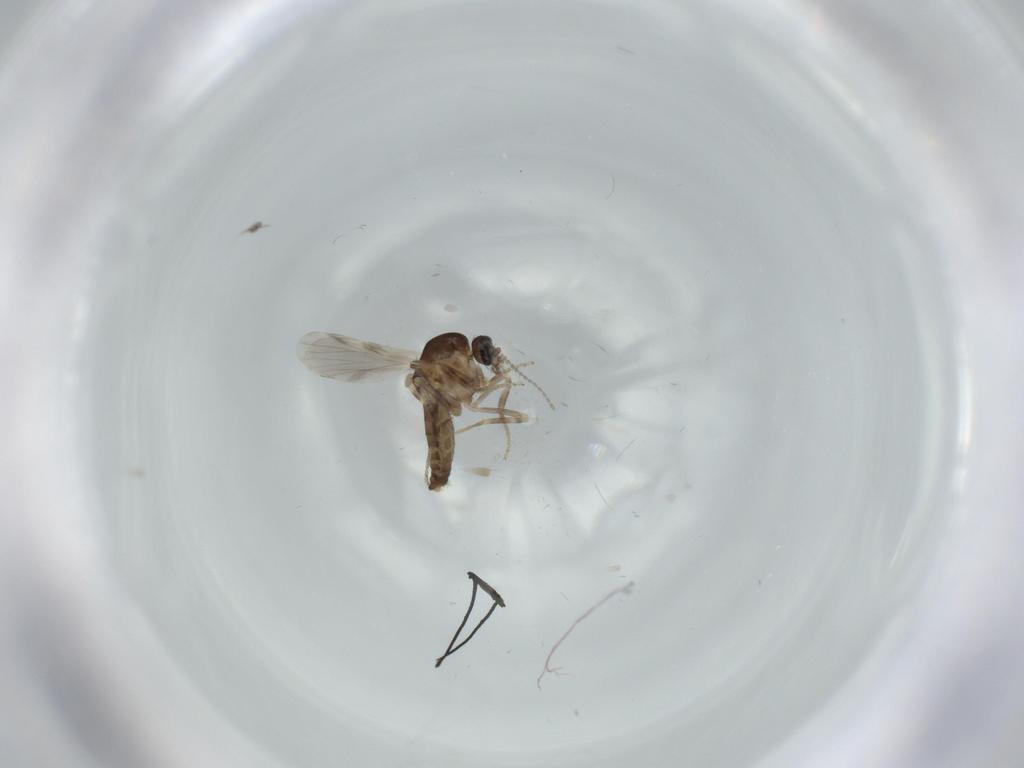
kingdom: Animalia
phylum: Arthropoda
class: Insecta
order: Diptera
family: Ceratopogonidae
